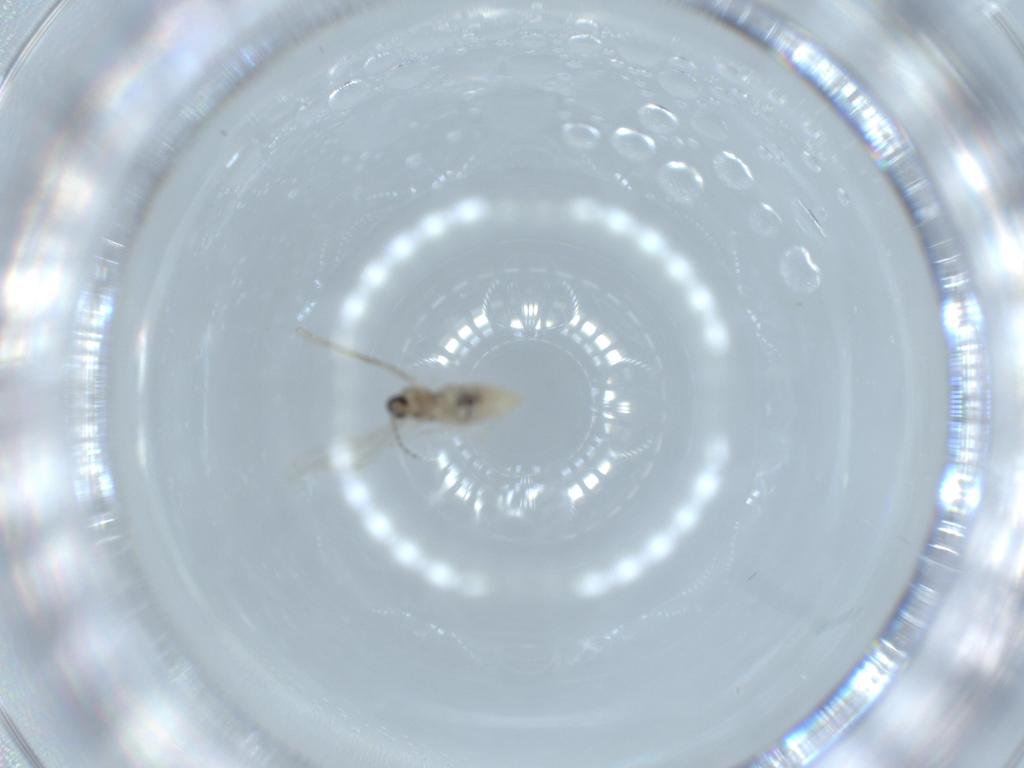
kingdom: Animalia
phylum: Arthropoda
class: Insecta
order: Diptera
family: Cecidomyiidae
